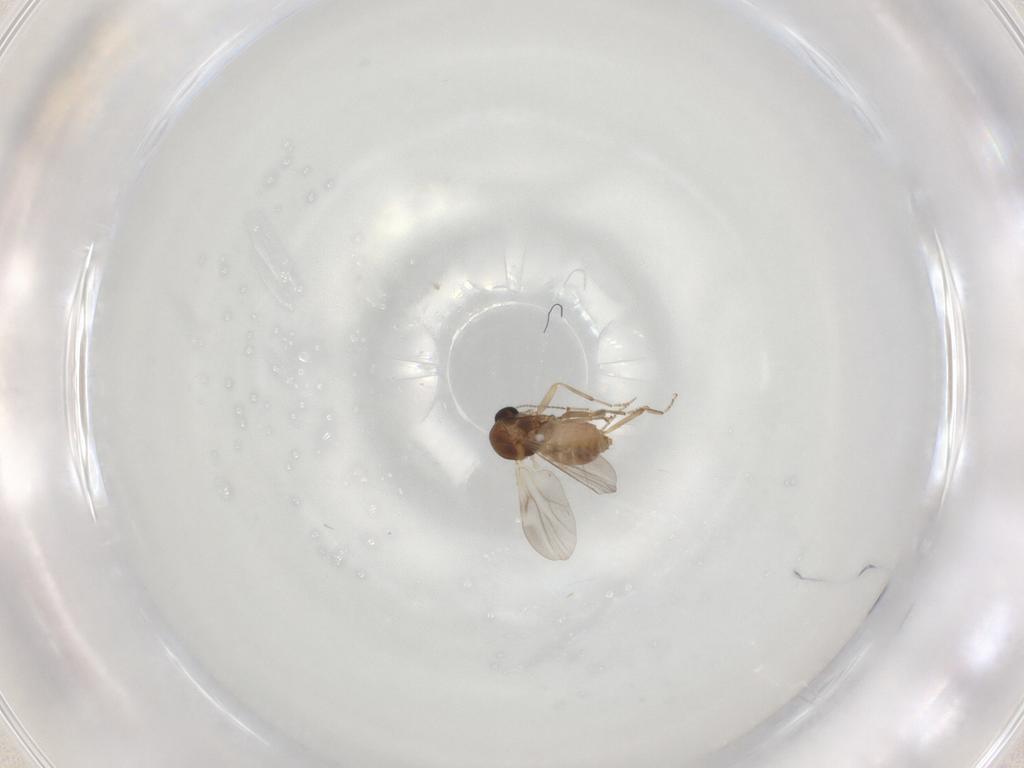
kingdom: Animalia
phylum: Arthropoda
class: Insecta
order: Diptera
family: Ceratopogonidae
